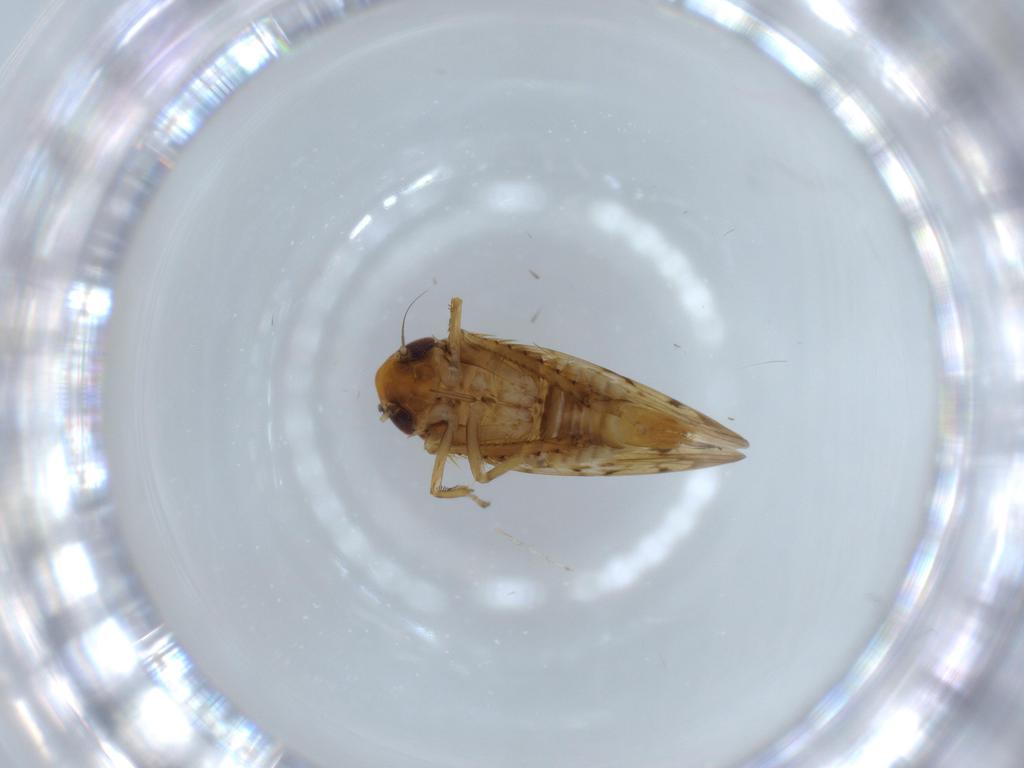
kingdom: Animalia
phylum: Arthropoda
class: Insecta
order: Hemiptera
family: Cicadellidae
